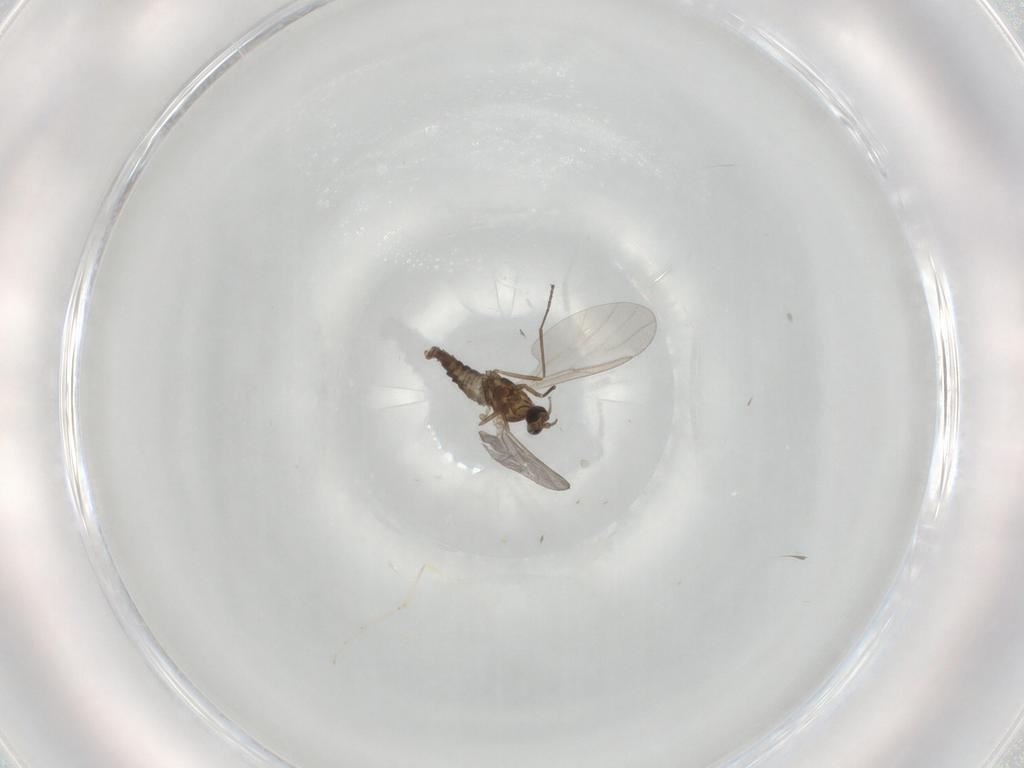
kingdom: Animalia
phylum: Arthropoda
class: Insecta
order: Diptera
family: Cecidomyiidae
